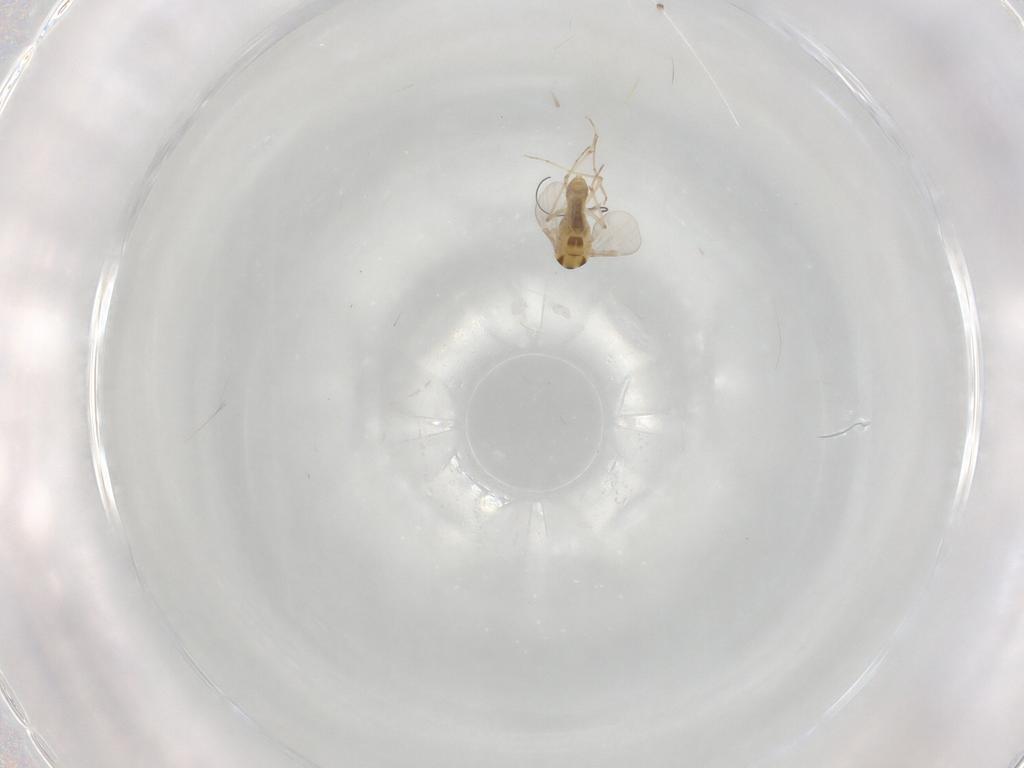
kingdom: Animalia
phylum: Arthropoda
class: Insecta
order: Diptera
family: Chironomidae
